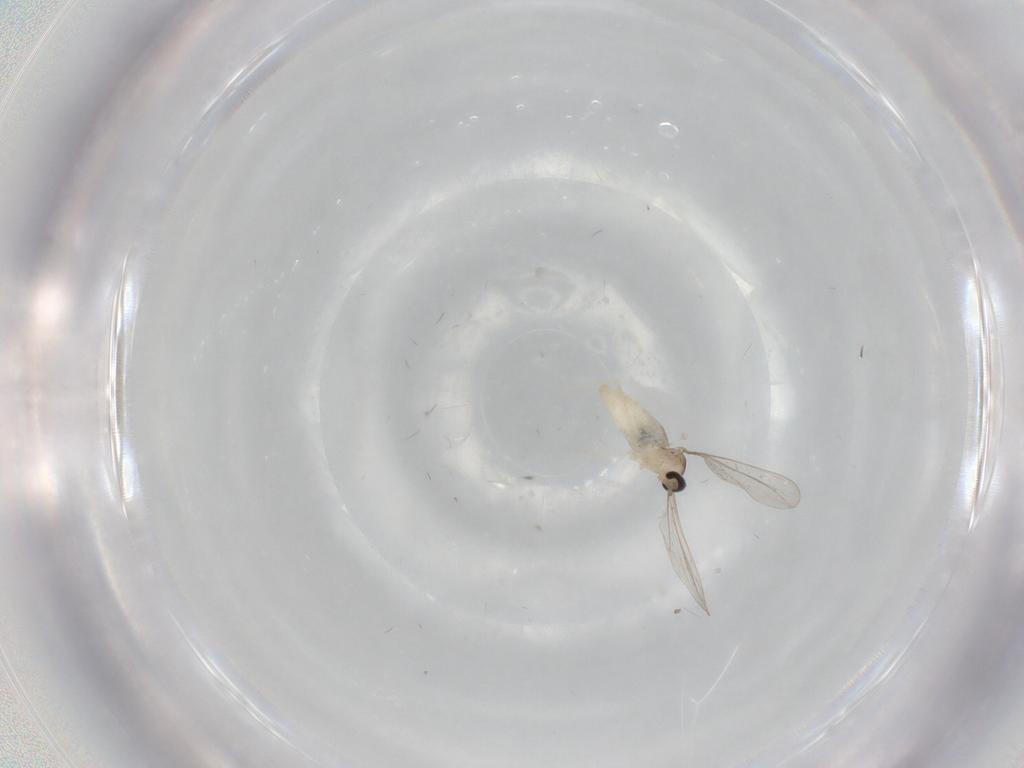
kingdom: Animalia
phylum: Arthropoda
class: Insecta
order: Diptera
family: Cecidomyiidae
